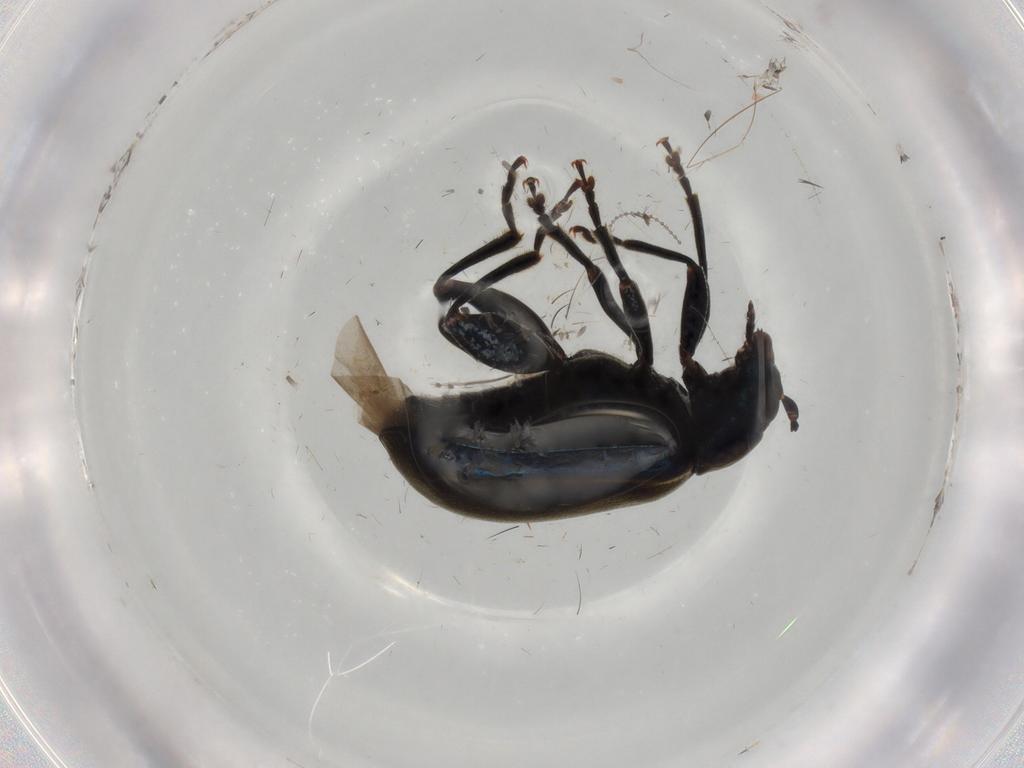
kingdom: Animalia
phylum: Arthropoda
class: Insecta
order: Coleoptera
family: Chrysomelidae
